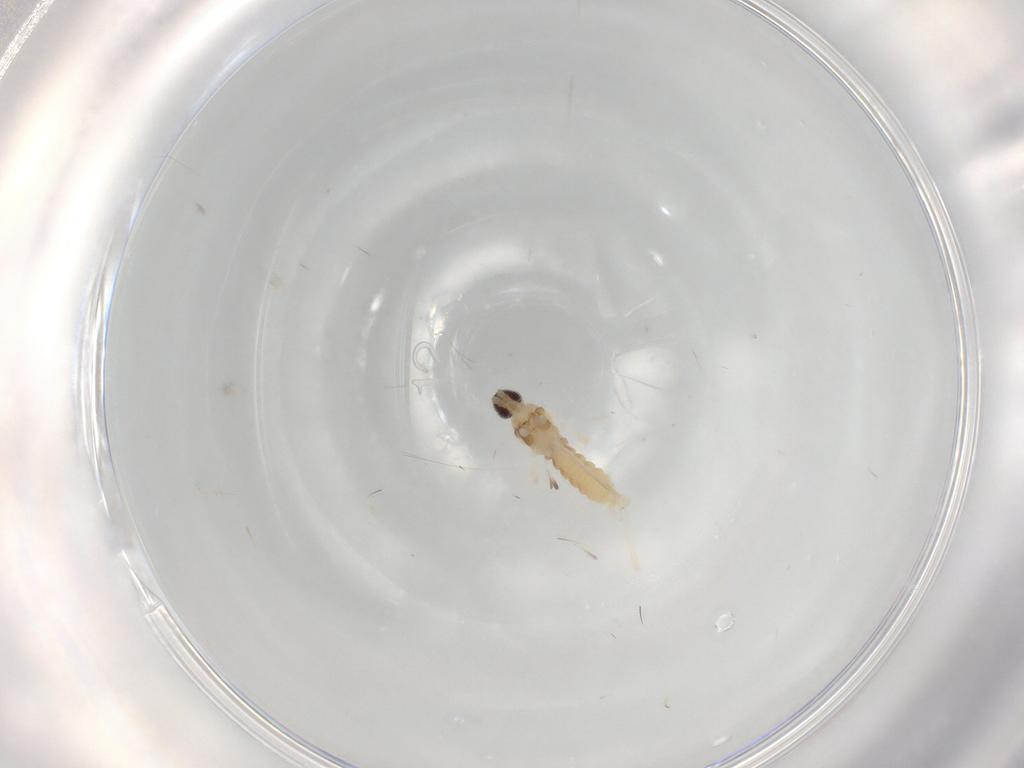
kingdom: Animalia
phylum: Arthropoda
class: Insecta
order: Diptera
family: Cecidomyiidae
